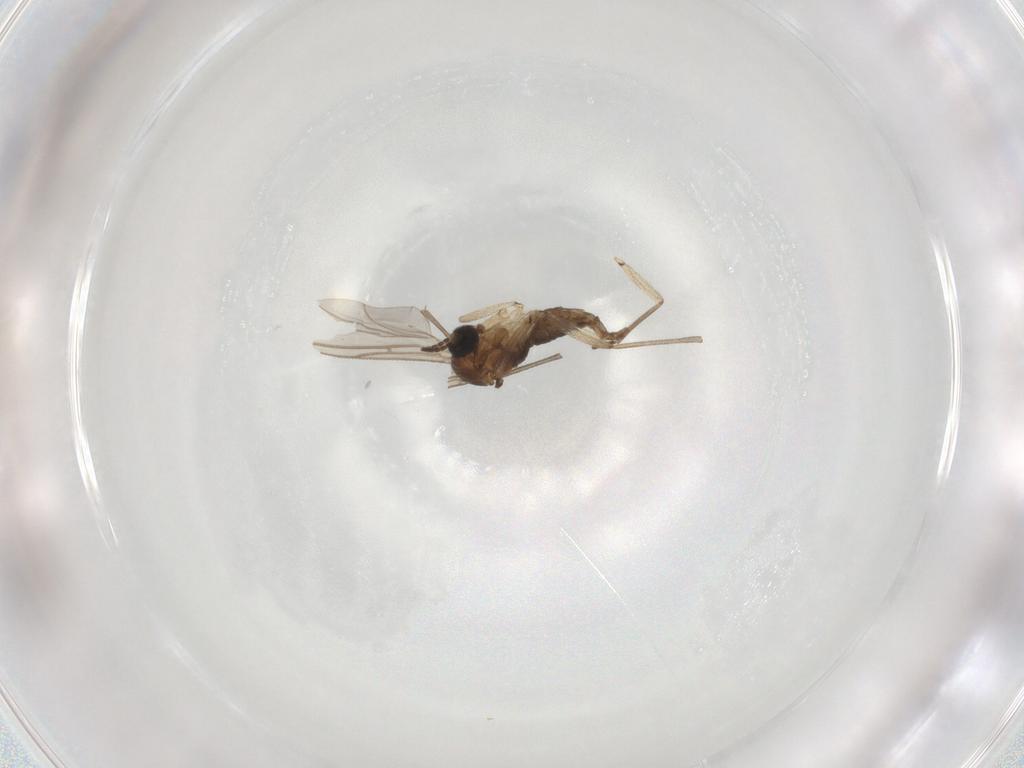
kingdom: Animalia
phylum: Arthropoda
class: Insecta
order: Diptera
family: Sciaridae
